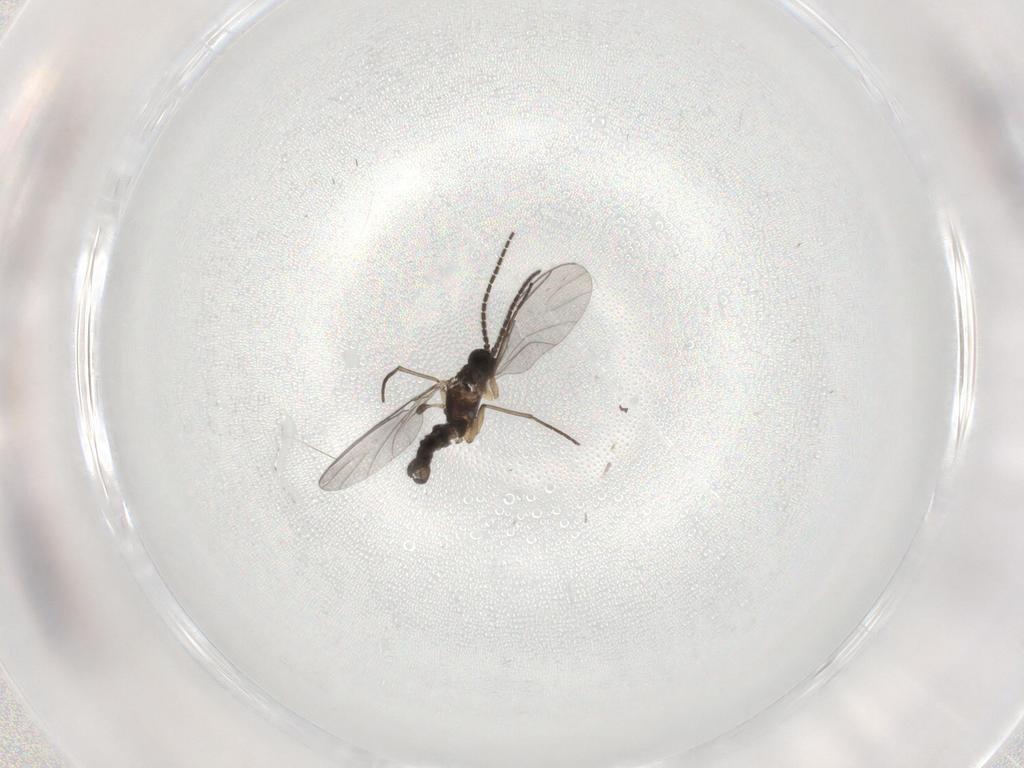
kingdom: Animalia
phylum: Arthropoda
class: Insecta
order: Diptera
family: Sciaridae
